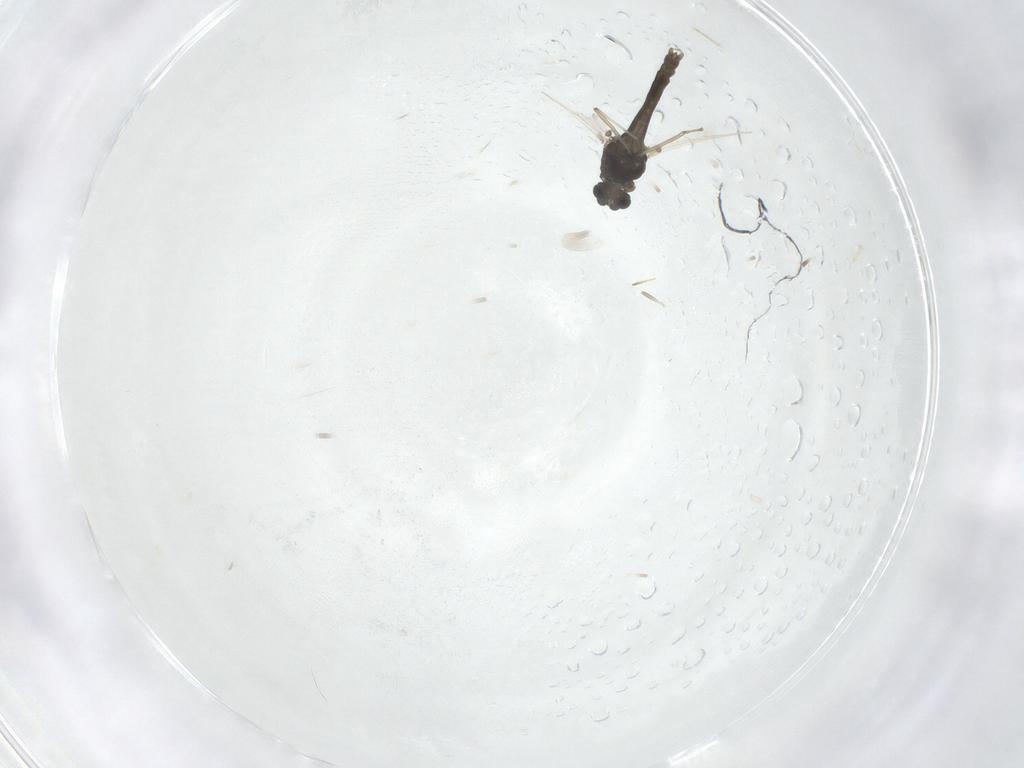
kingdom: Animalia
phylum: Arthropoda
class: Insecta
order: Diptera
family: Chironomidae
